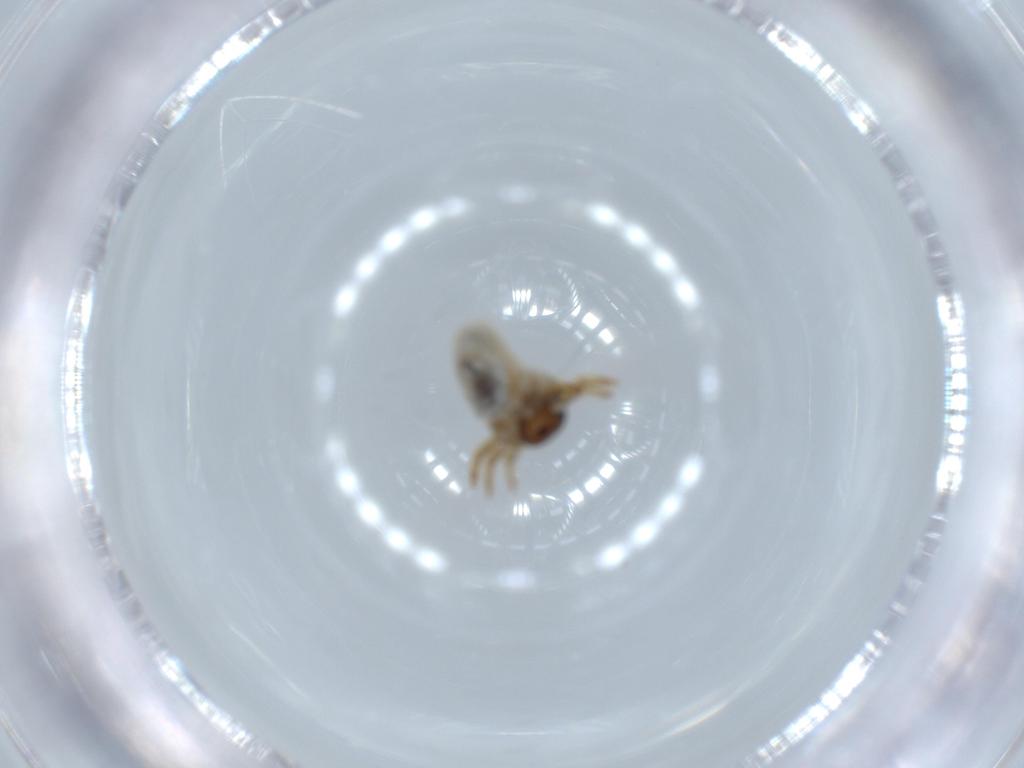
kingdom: Animalia
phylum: Arthropoda
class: Insecta
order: Coleoptera
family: Chrysomelidae
